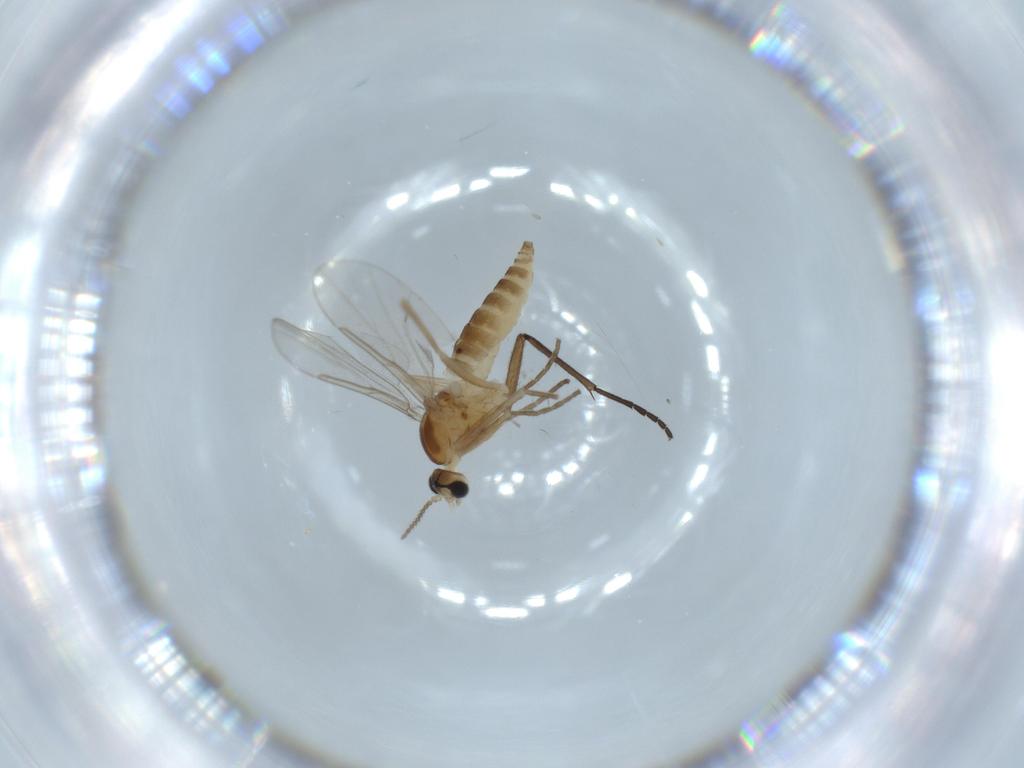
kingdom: Animalia
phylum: Arthropoda
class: Insecta
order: Diptera
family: Cecidomyiidae
